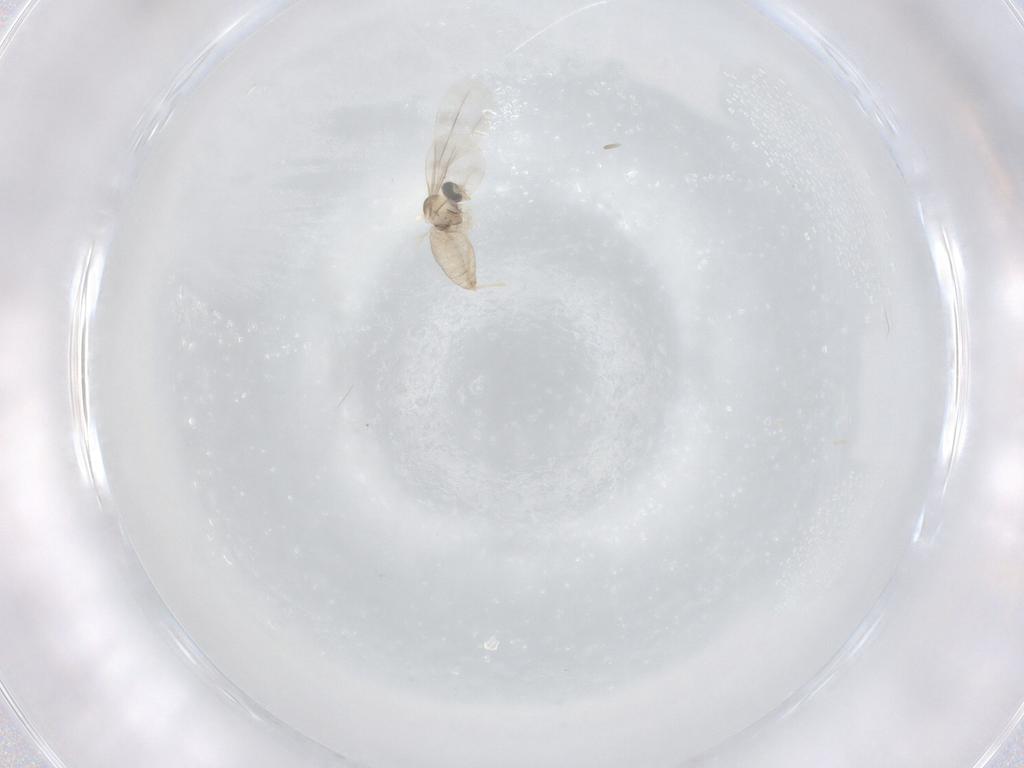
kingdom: Animalia
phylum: Arthropoda
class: Insecta
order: Diptera
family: Cecidomyiidae
